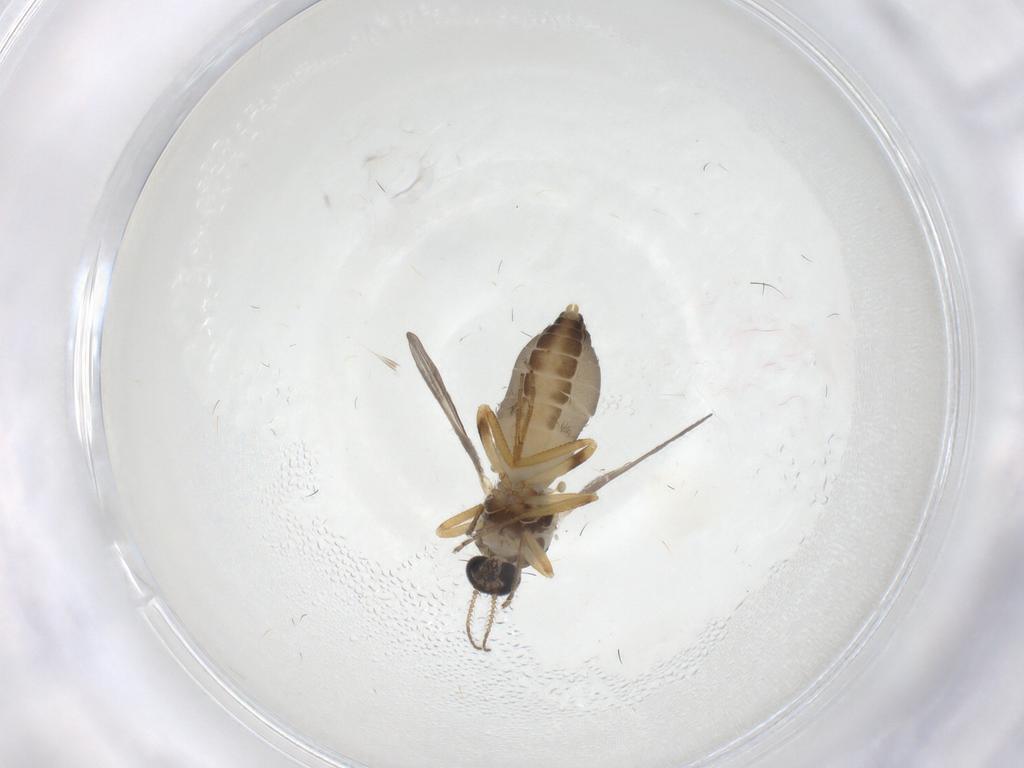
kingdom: Animalia
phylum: Arthropoda
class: Insecta
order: Diptera
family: Ceratopogonidae
